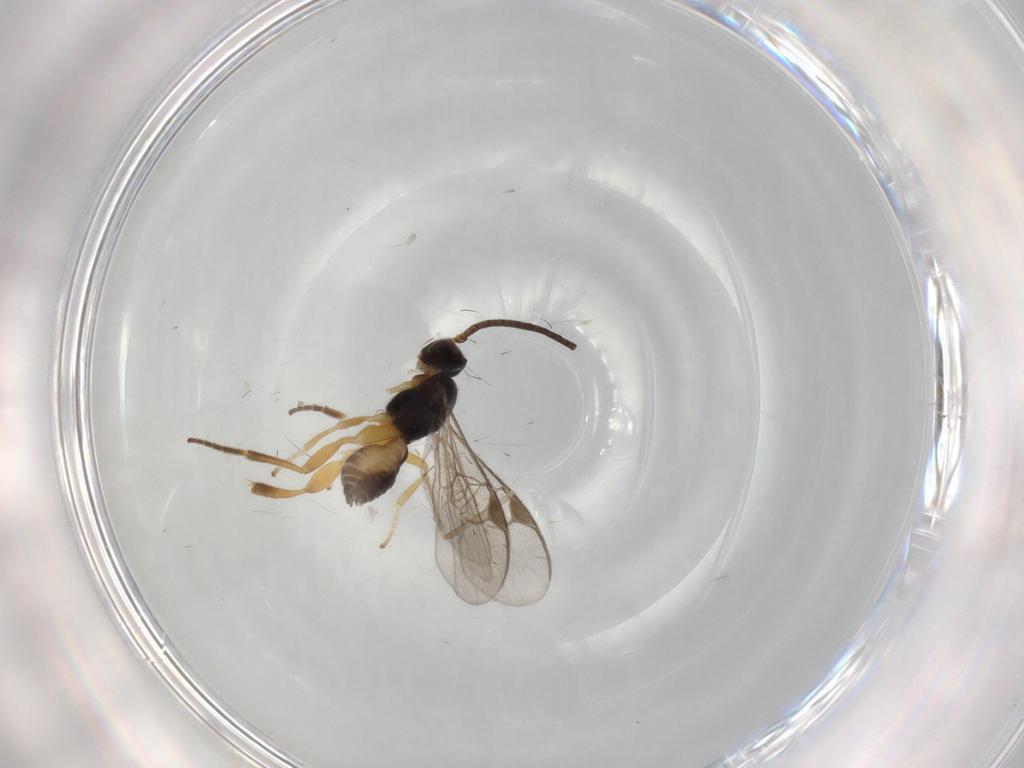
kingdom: Animalia
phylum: Arthropoda
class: Insecta
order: Hymenoptera
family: Braconidae
